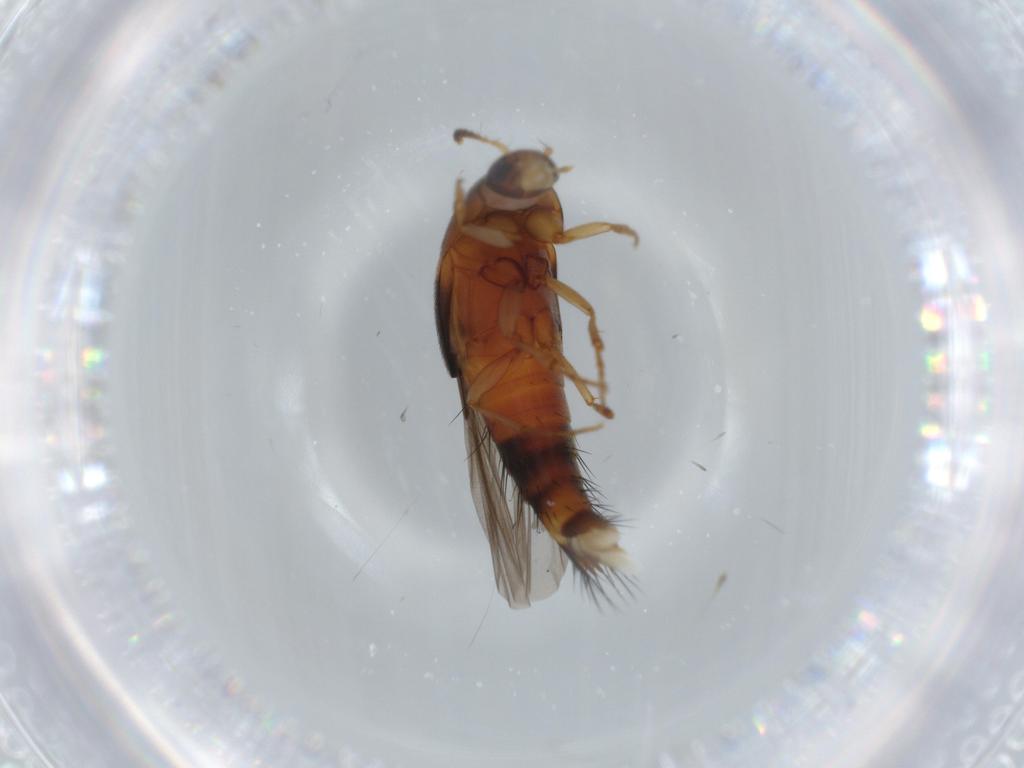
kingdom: Animalia
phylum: Arthropoda
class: Insecta
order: Coleoptera
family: Staphylinidae
